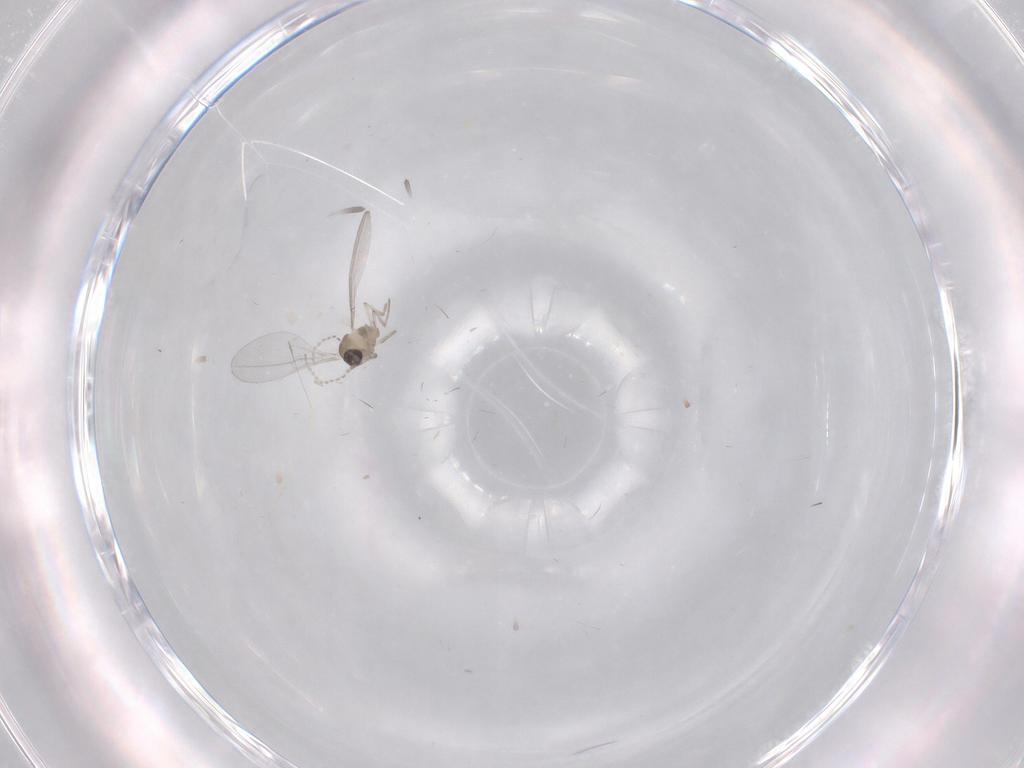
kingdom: Animalia
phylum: Arthropoda
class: Insecta
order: Diptera
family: Cecidomyiidae
